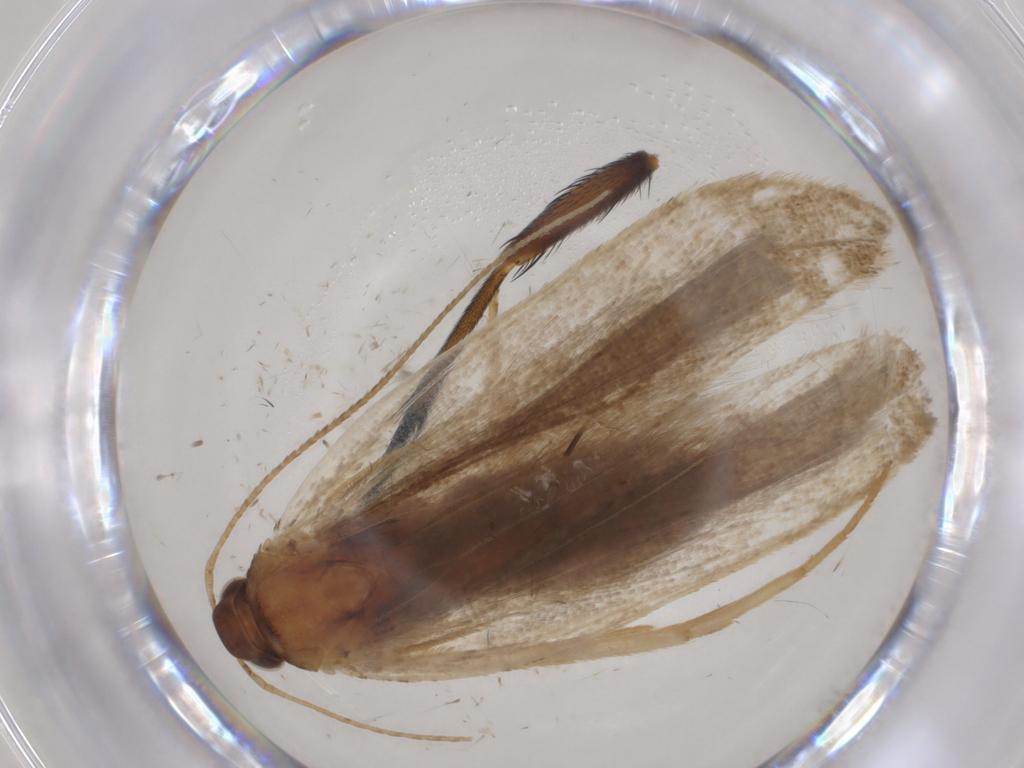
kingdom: Animalia
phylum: Arthropoda
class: Insecta
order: Lepidoptera
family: Gelechiidae
